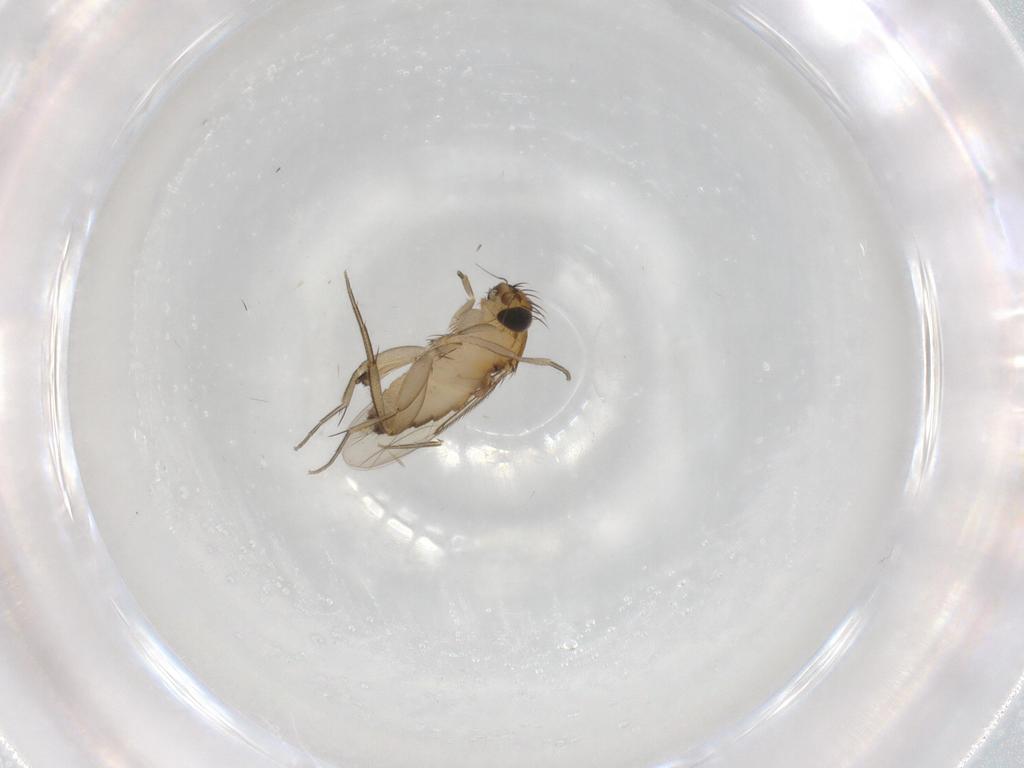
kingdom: Animalia
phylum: Arthropoda
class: Insecta
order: Diptera
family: Phoridae
